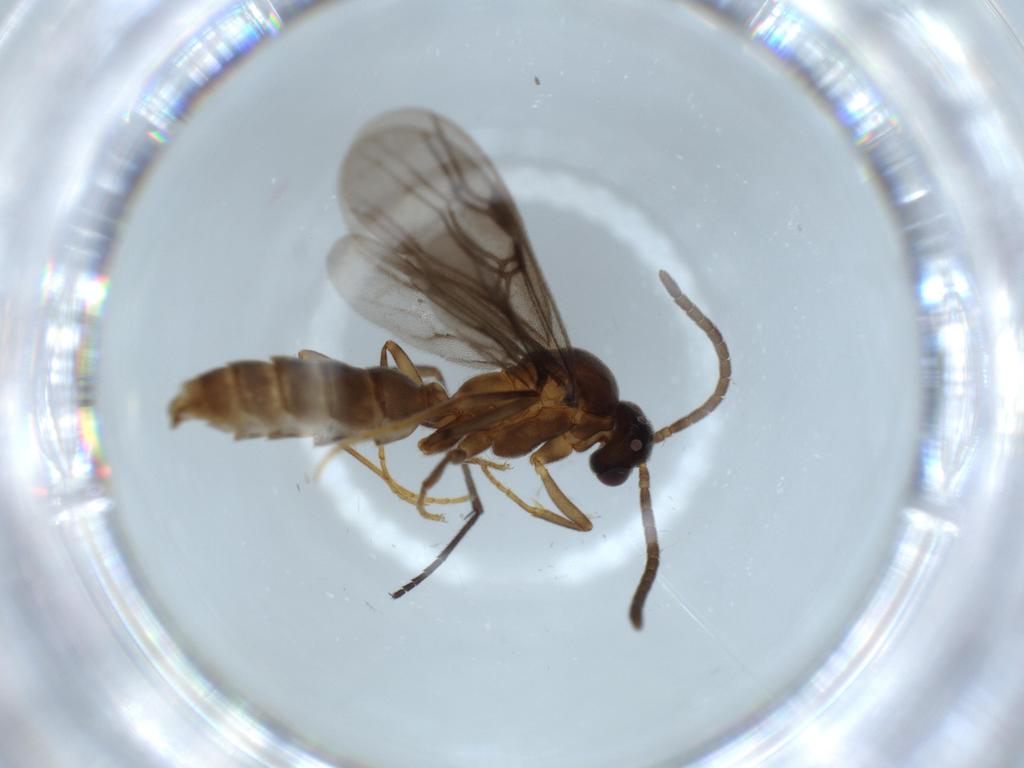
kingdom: Animalia
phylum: Arthropoda
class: Insecta
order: Hymenoptera
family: Formicidae
